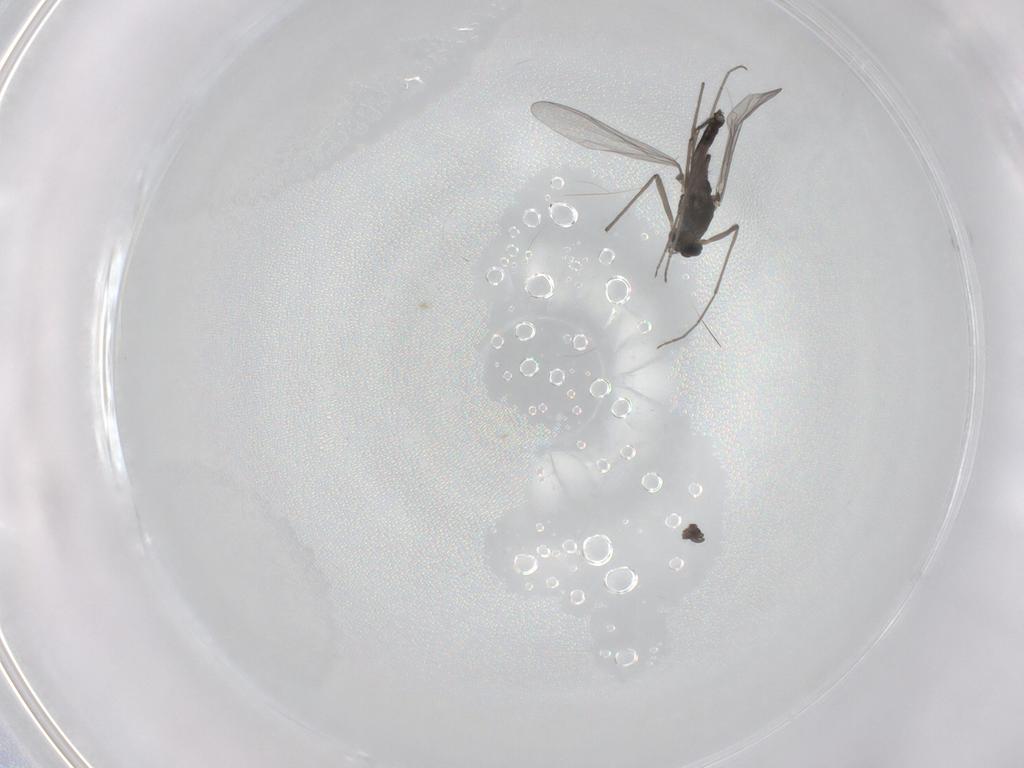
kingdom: Animalia
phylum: Arthropoda
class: Insecta
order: Diptera
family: Chironomidae
